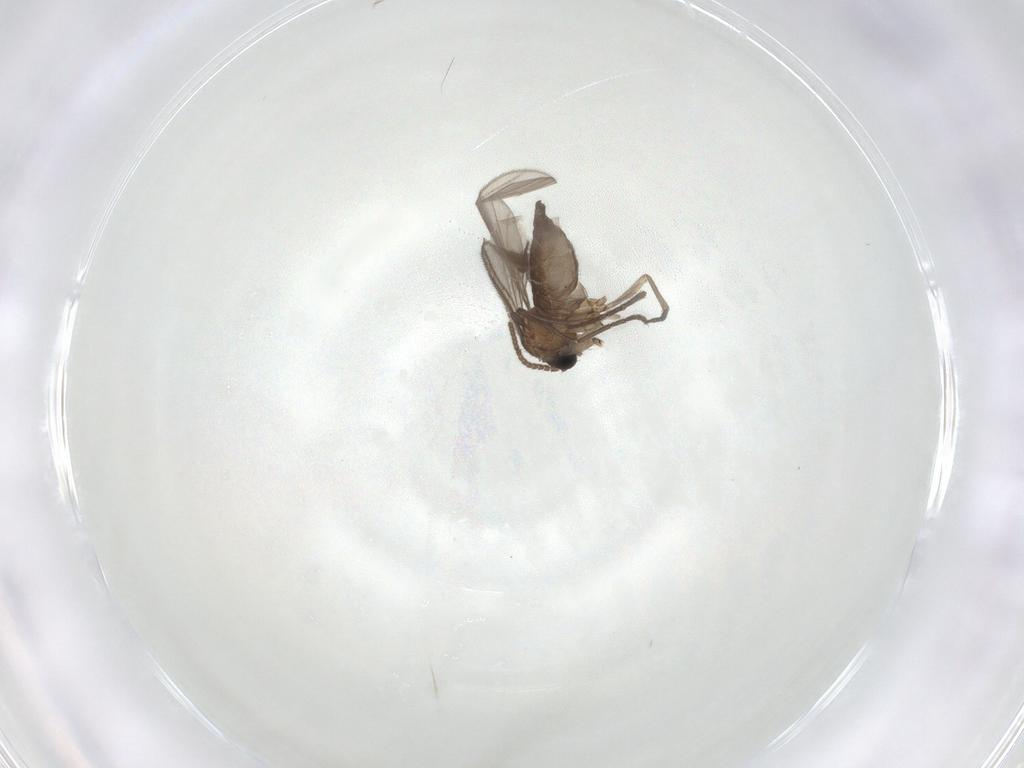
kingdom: Animalia
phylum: Arthropoda
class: Insecta
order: Diptera
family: Sciaridae
